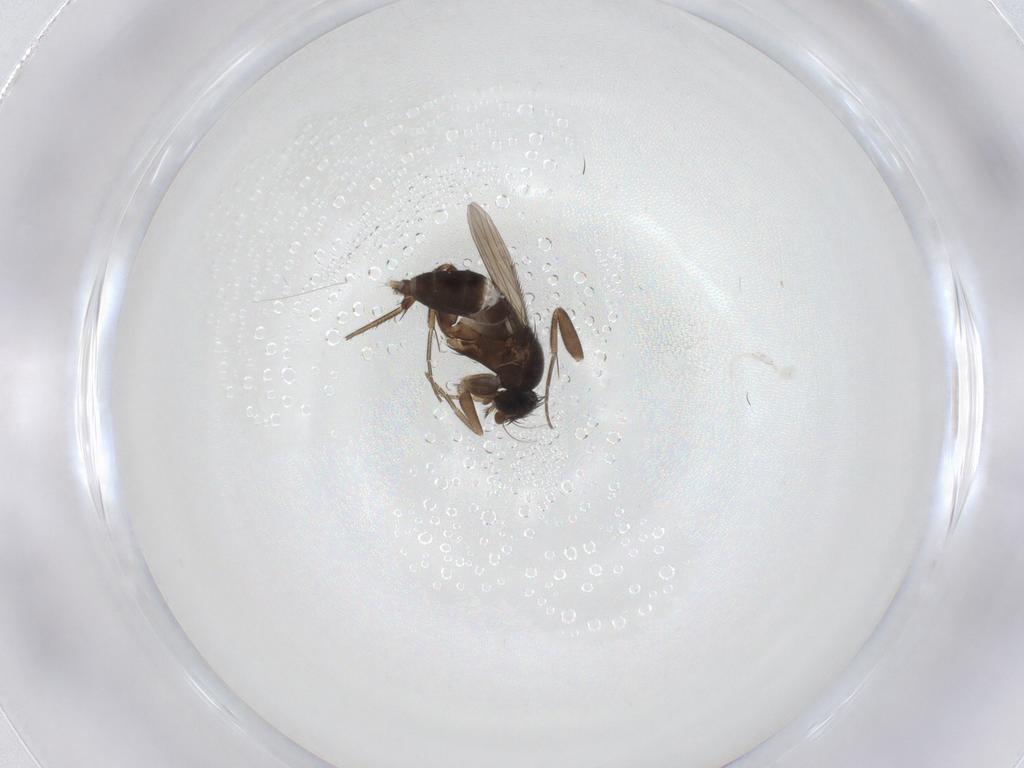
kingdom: Animalia
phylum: Arthropoda
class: Insecta
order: Diptera
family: Phoridae
